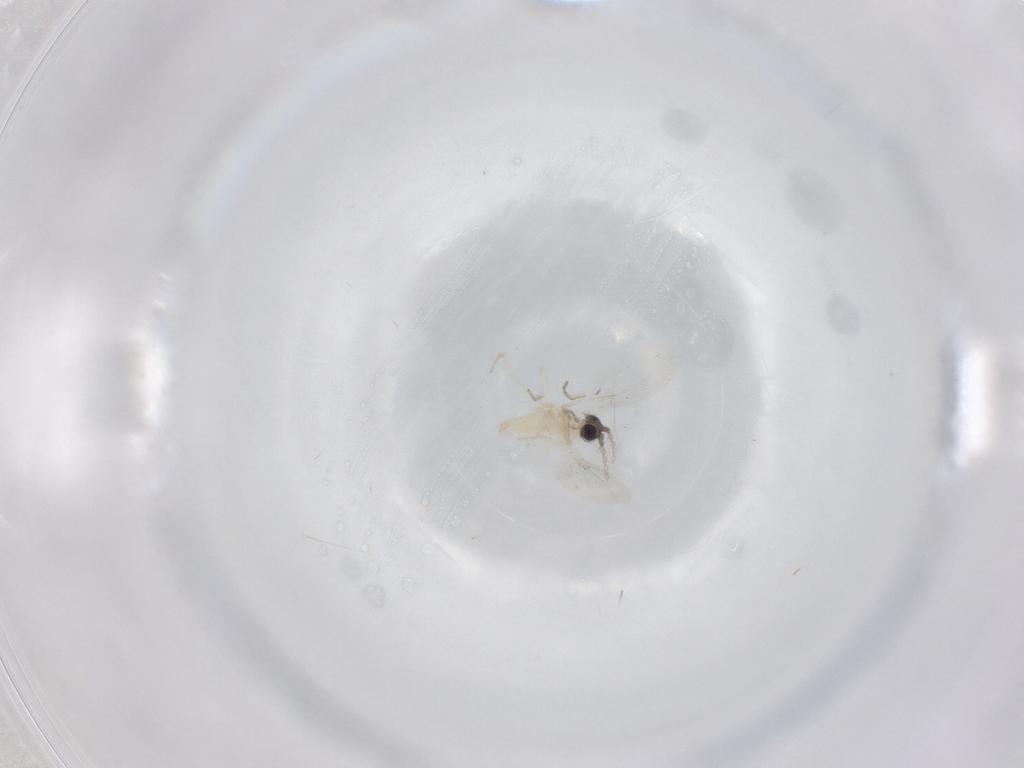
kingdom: Animalia
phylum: Arthropoda
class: Insecta
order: Diptera
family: Cecidomyiidae
